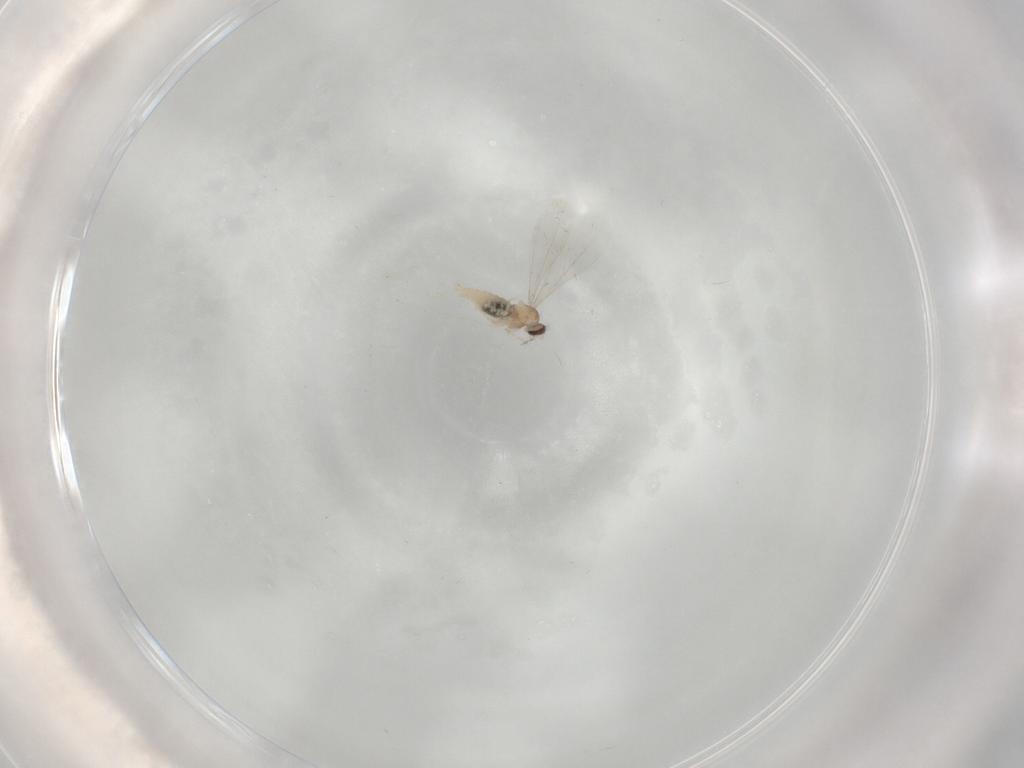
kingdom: Animalia
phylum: Arthropoda
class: Insecta
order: Diptera
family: Cecidomyiidae
